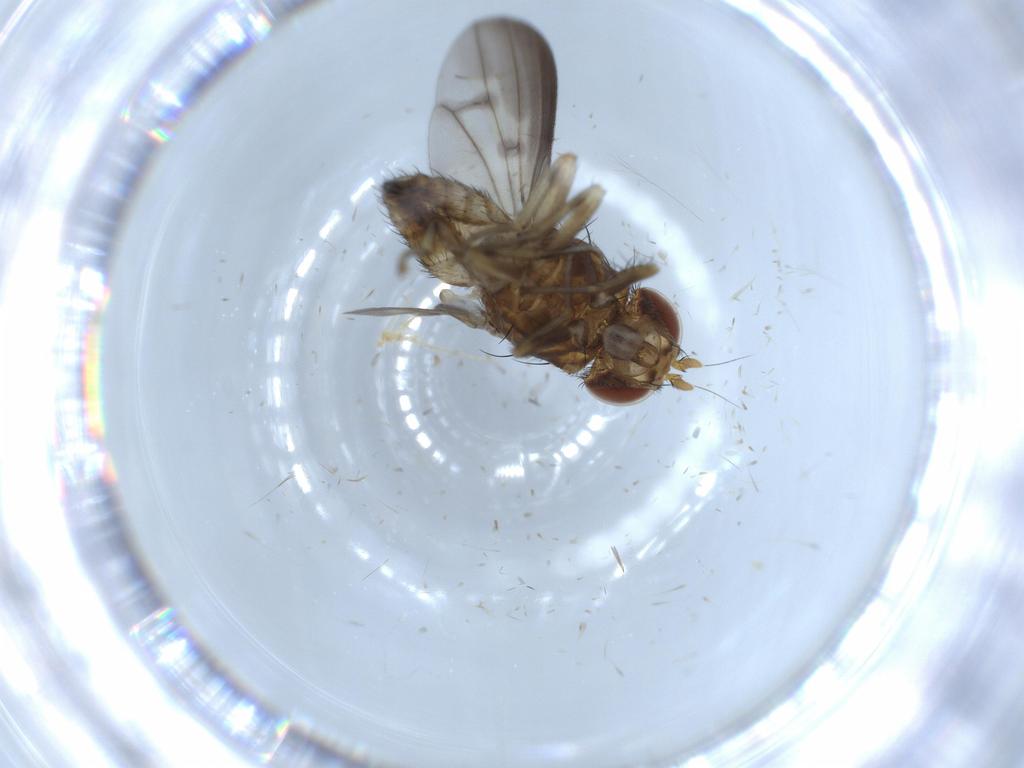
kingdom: Animalia
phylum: Arthropoda
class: Insecta
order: Diptera
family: Lauxaniidae
